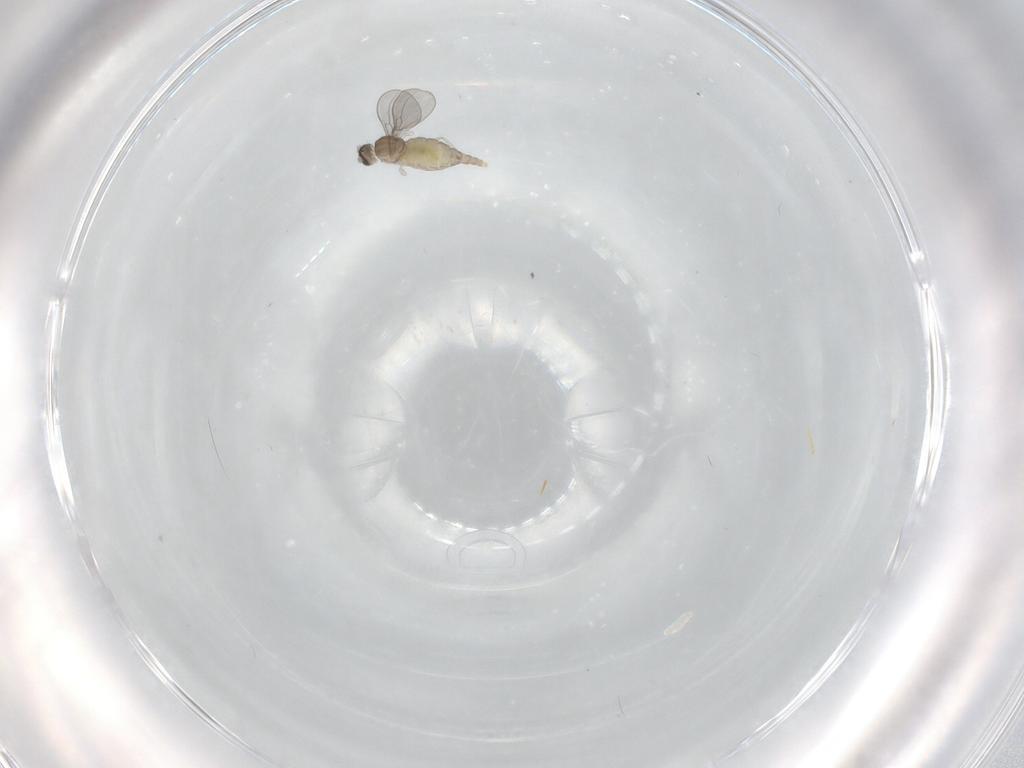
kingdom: Animalia
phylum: Arthropoda
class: Insecta
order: Diptera
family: Cecidomyiidae
